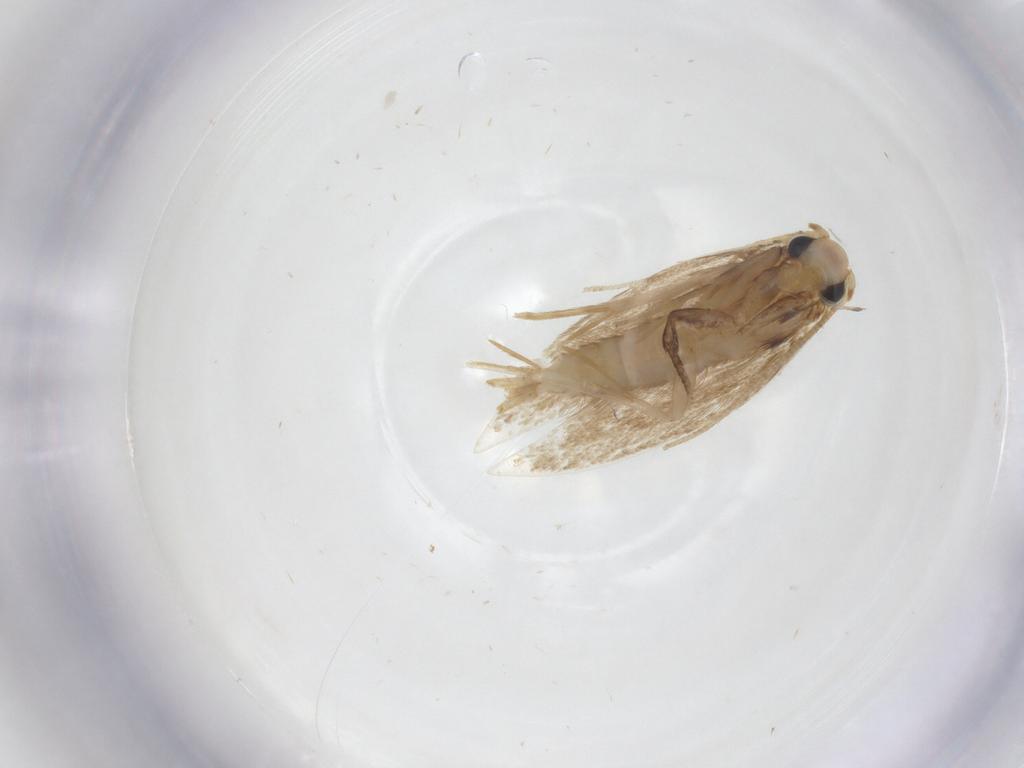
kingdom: Animalia
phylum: Arthropoda
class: Insecta
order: Lepidoptera
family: Tineidae
